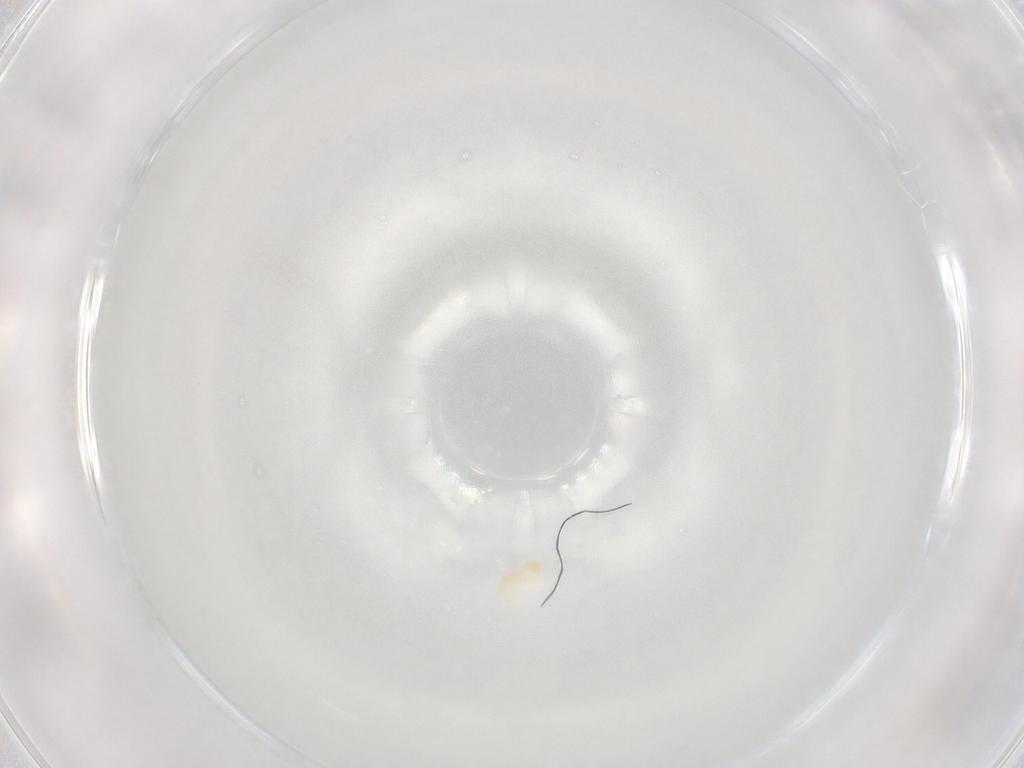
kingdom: Animalia
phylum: Arthropoda
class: Arachnida
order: Trombidiformes
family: Eupodidae
